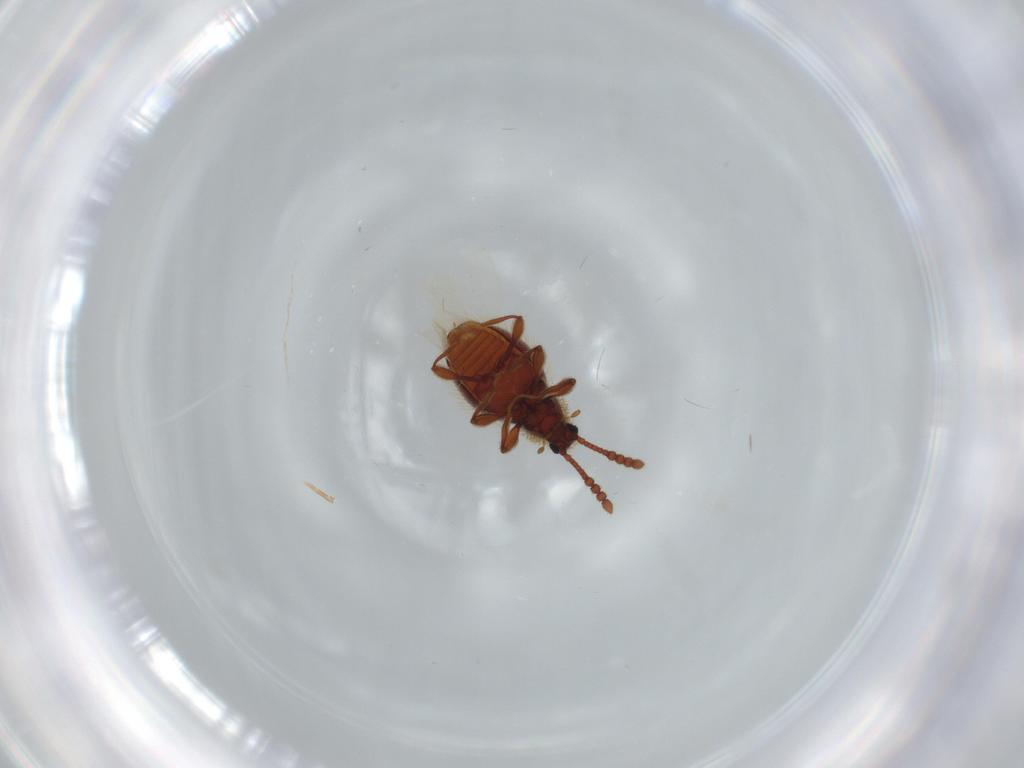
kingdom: Animalia
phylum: Arthropoda
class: Insecta
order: Coleoptera
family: Staphylinidae
